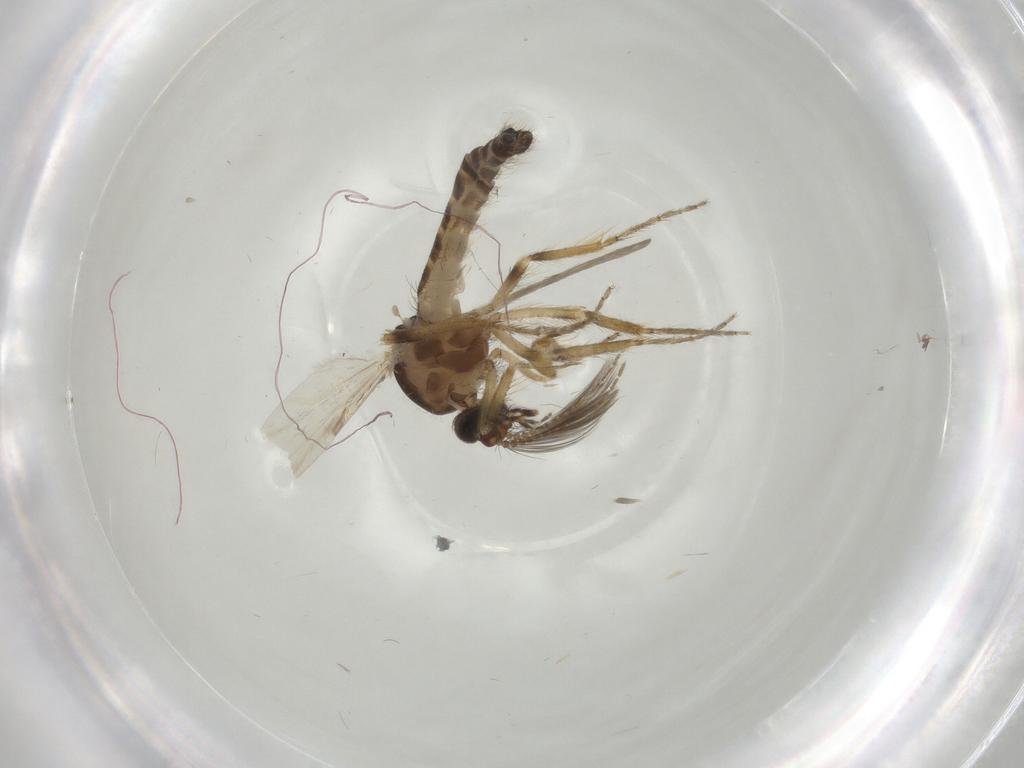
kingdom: Animalia
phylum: Arthropoda
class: Insecta
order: Diptera
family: Ceratopogonidae
